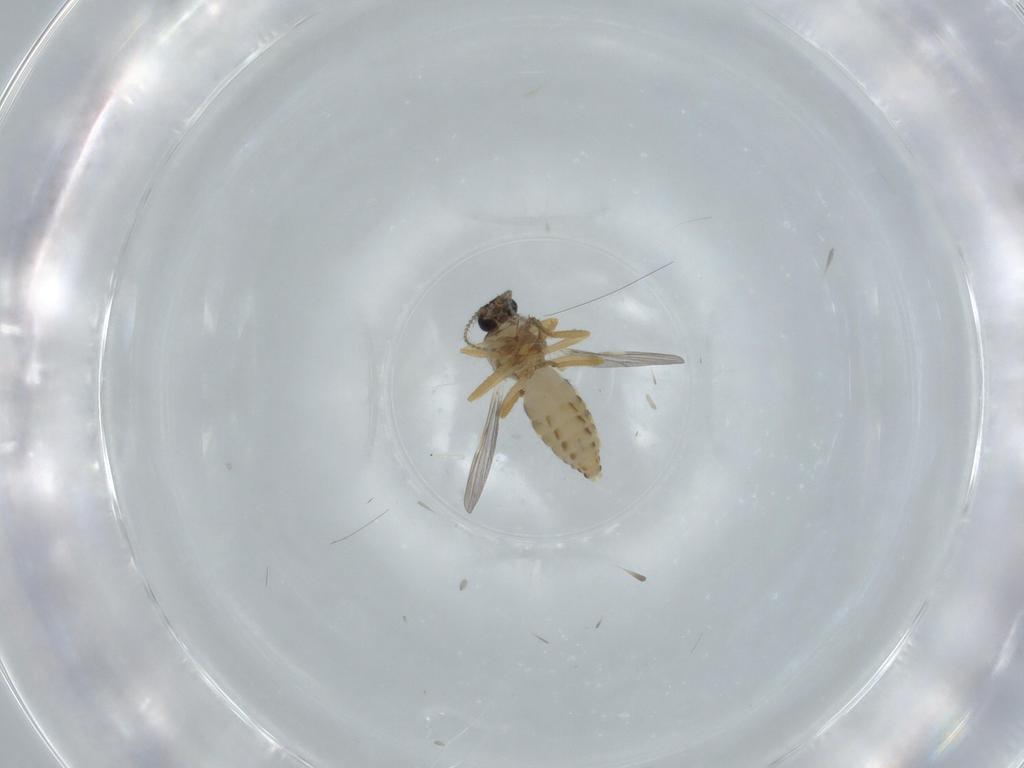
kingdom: Animalia
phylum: Arthropoda
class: Insecta
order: Diptera
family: Ceratopogonidae
